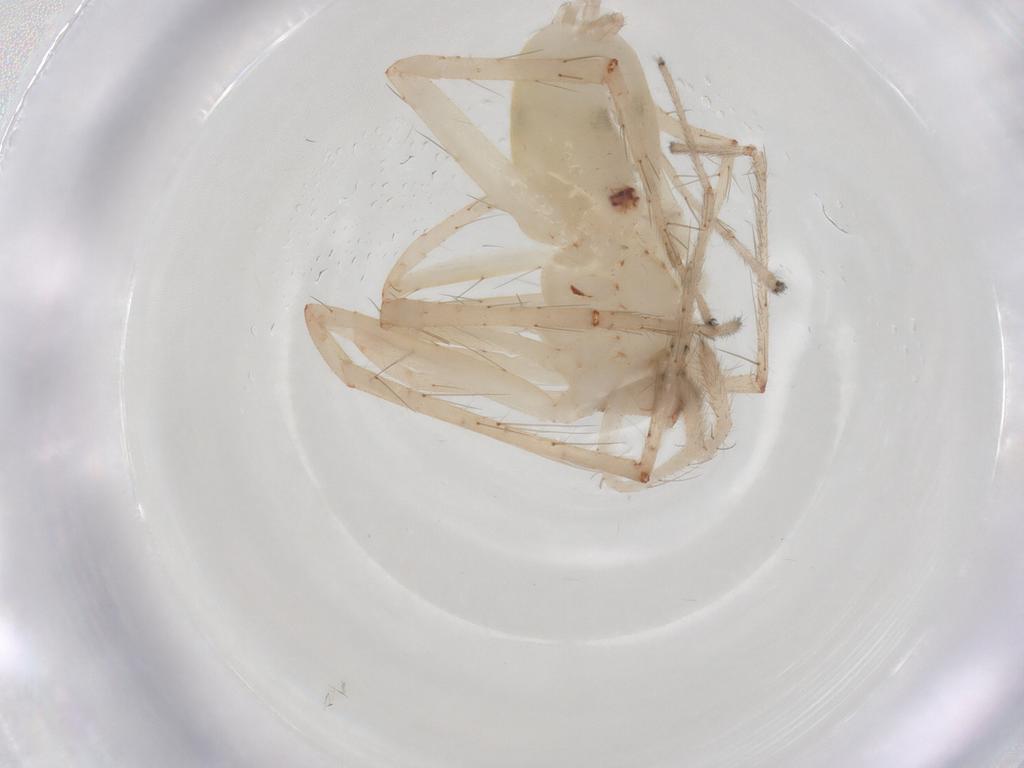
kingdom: Animalia
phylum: Arthropoda
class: Arachnida
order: Araneae
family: Anyphaenidae
